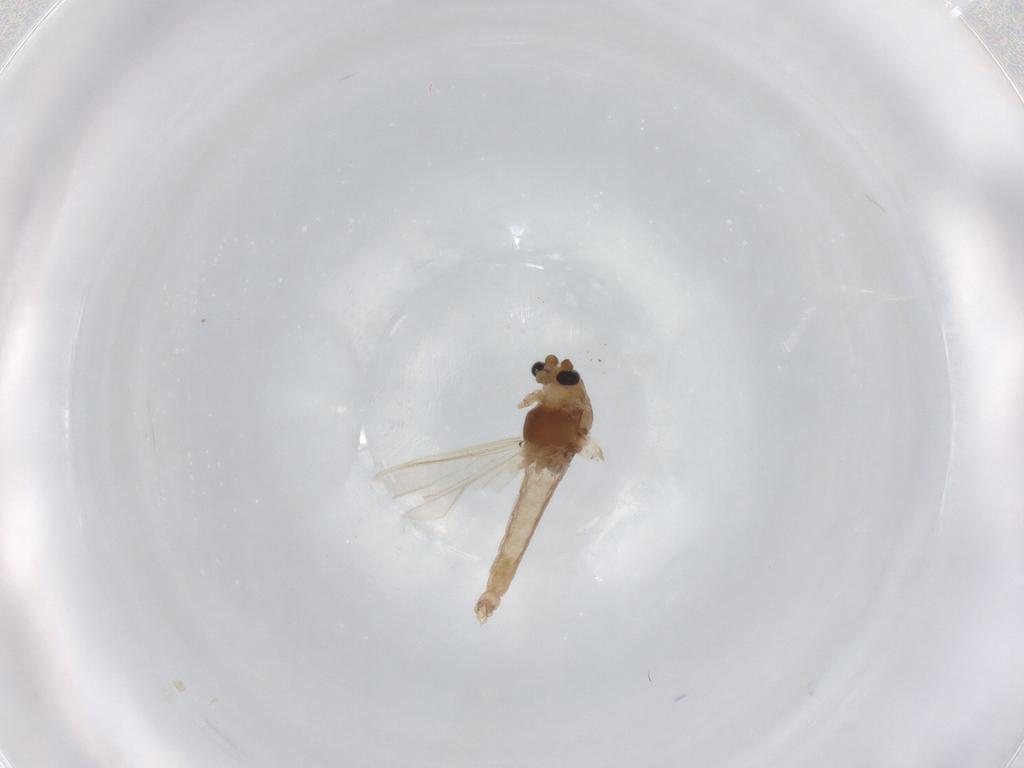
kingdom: Animalia
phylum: Arthropoda
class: Insecta
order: Diptera
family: Chironomidae
